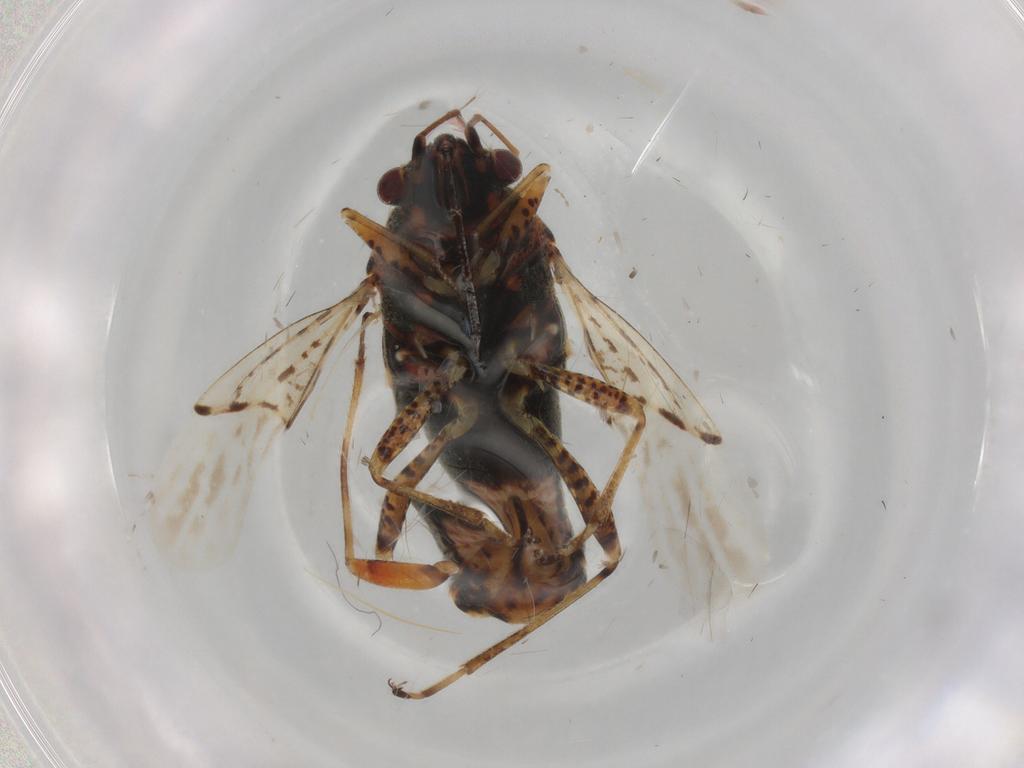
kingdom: Animalia
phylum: Arthropoda
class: Insecta
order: Hemiptera
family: Lygaeidae
